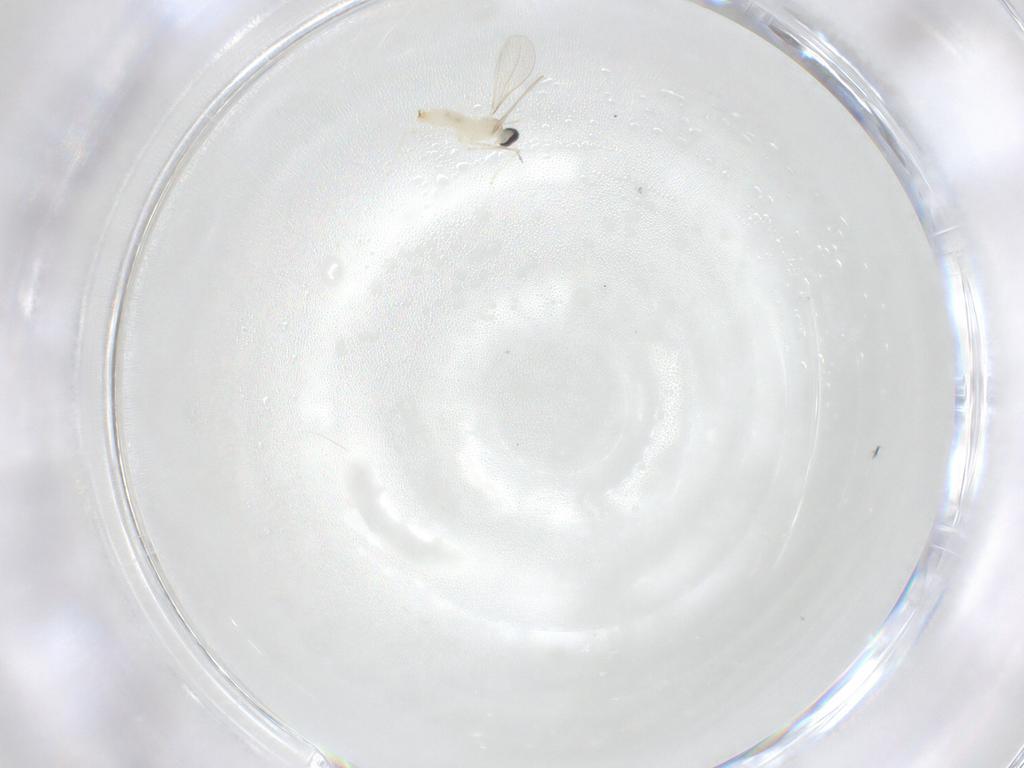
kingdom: Animalia
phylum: Arthropoda
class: Insecta
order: Diptera
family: Cecidomyiidae
